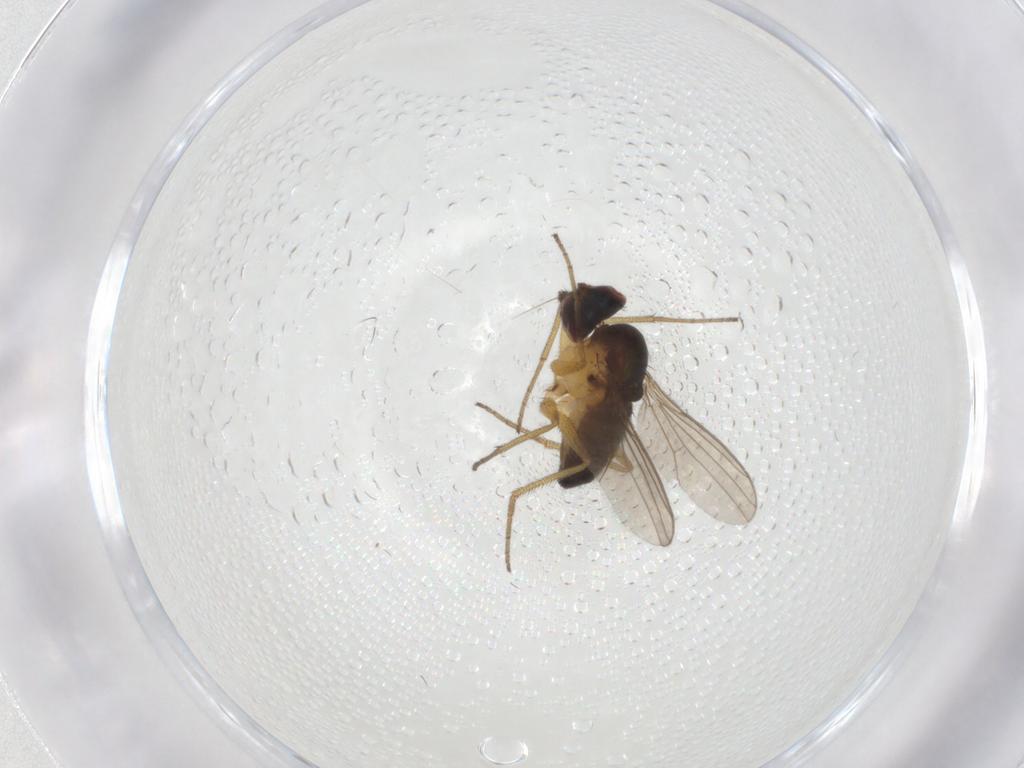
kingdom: Animalia
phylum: Arthropoda
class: Insecta
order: Diptera
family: Dolichopodidae
